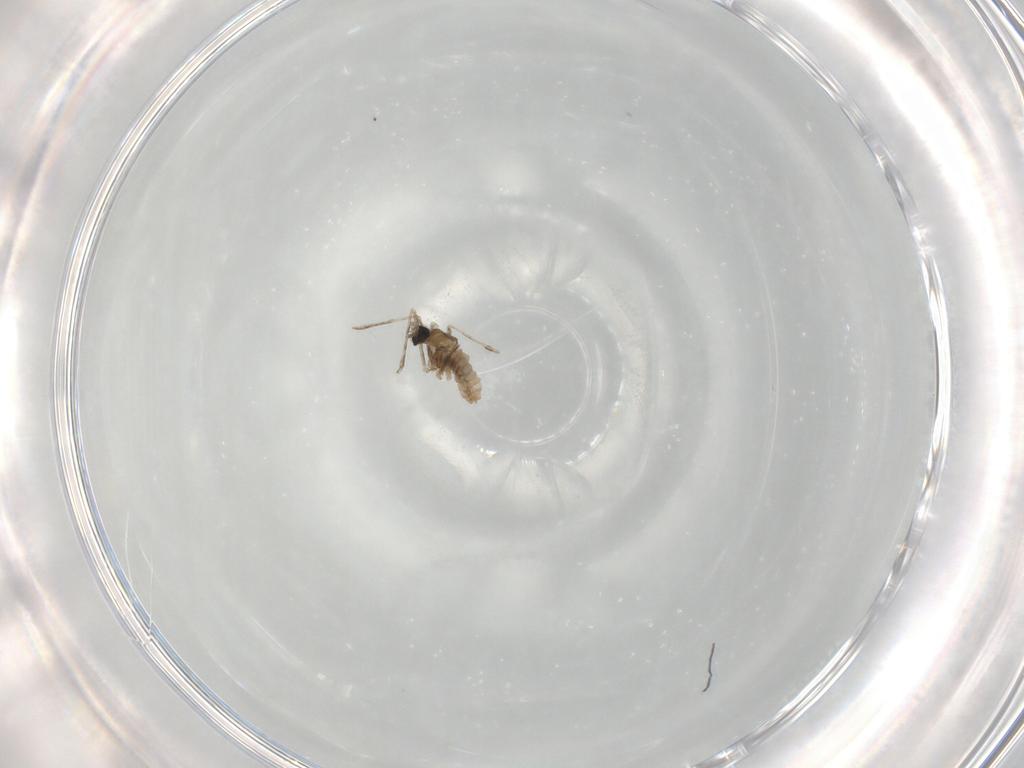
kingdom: Animalia
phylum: Arthropoda
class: Insecta
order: Diptera
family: Cecidomyiidae
